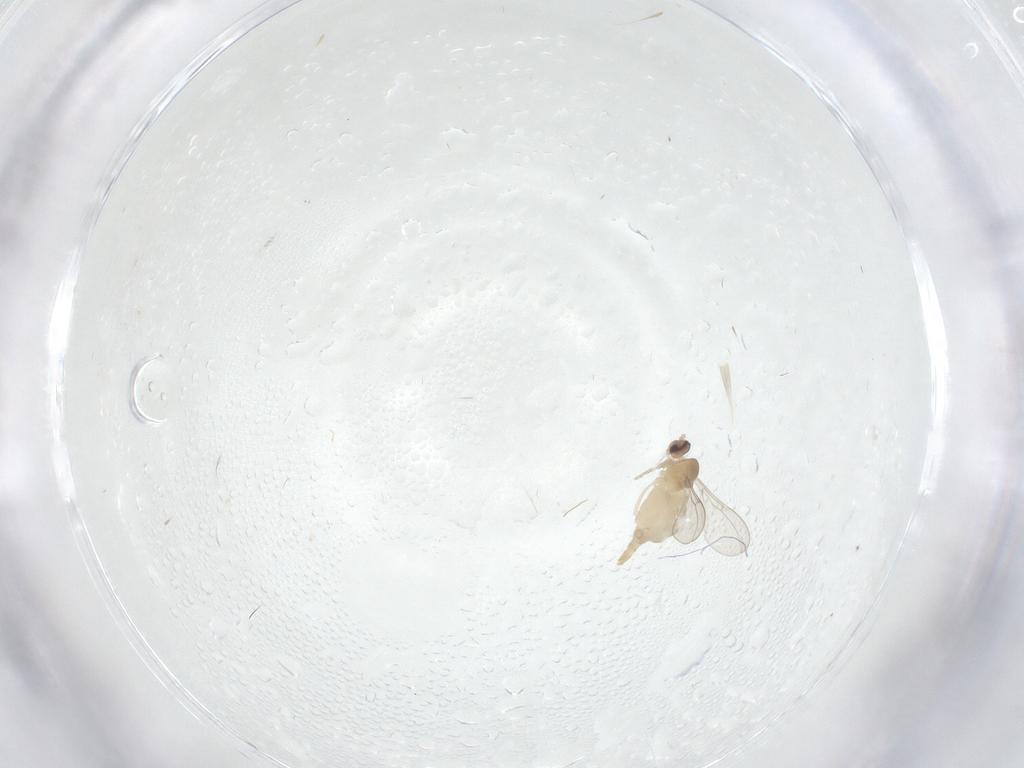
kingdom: Animalia
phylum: Arthropoda
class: Insecta
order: Diptera
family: Cecidomyiidae
